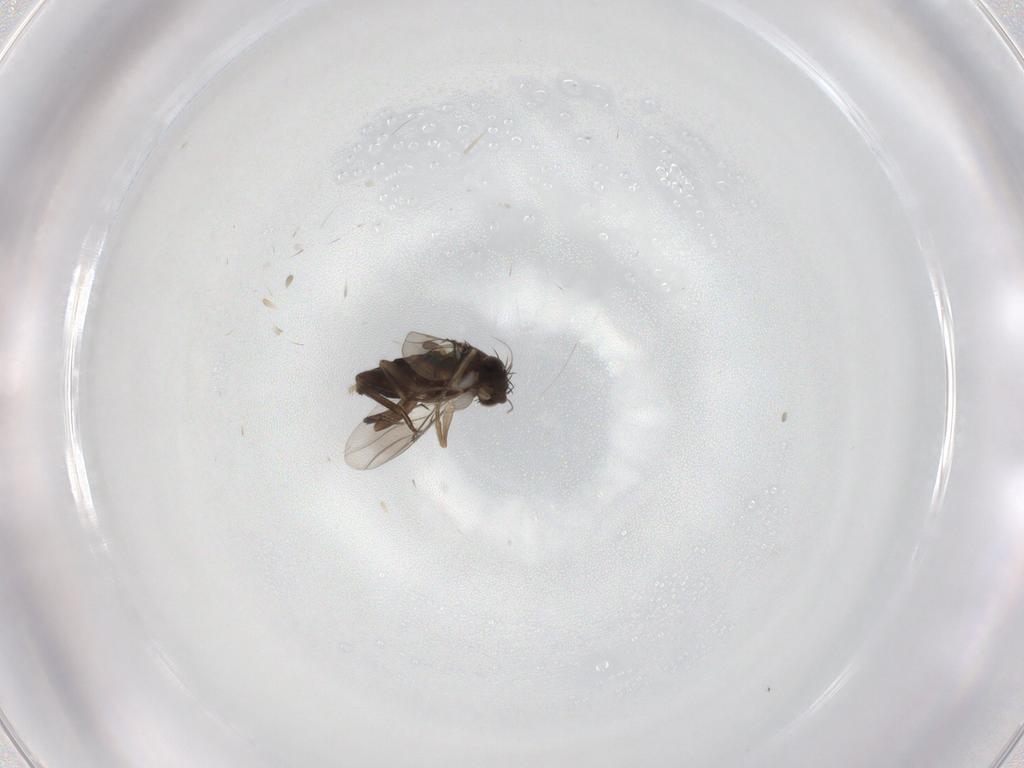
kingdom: Animalia
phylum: Arthropoda
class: Insecta
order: Diptera
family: Phoridae
